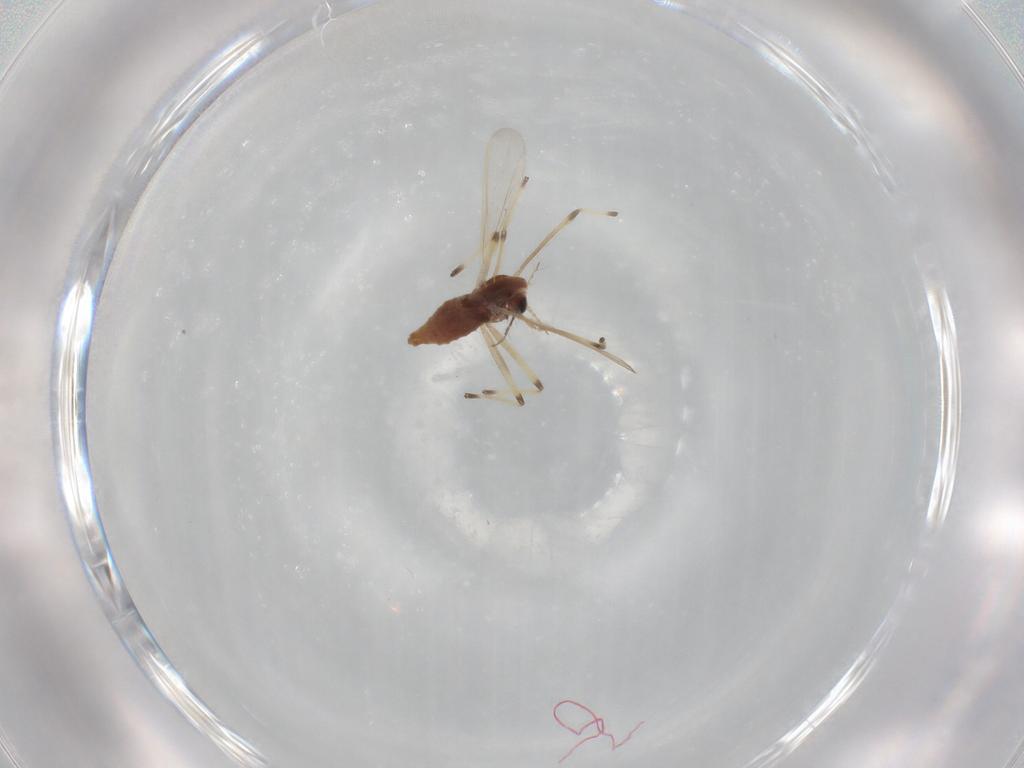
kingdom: Animalia
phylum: Arthropoda
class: Insecta
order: Diptera
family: Chironomidae
